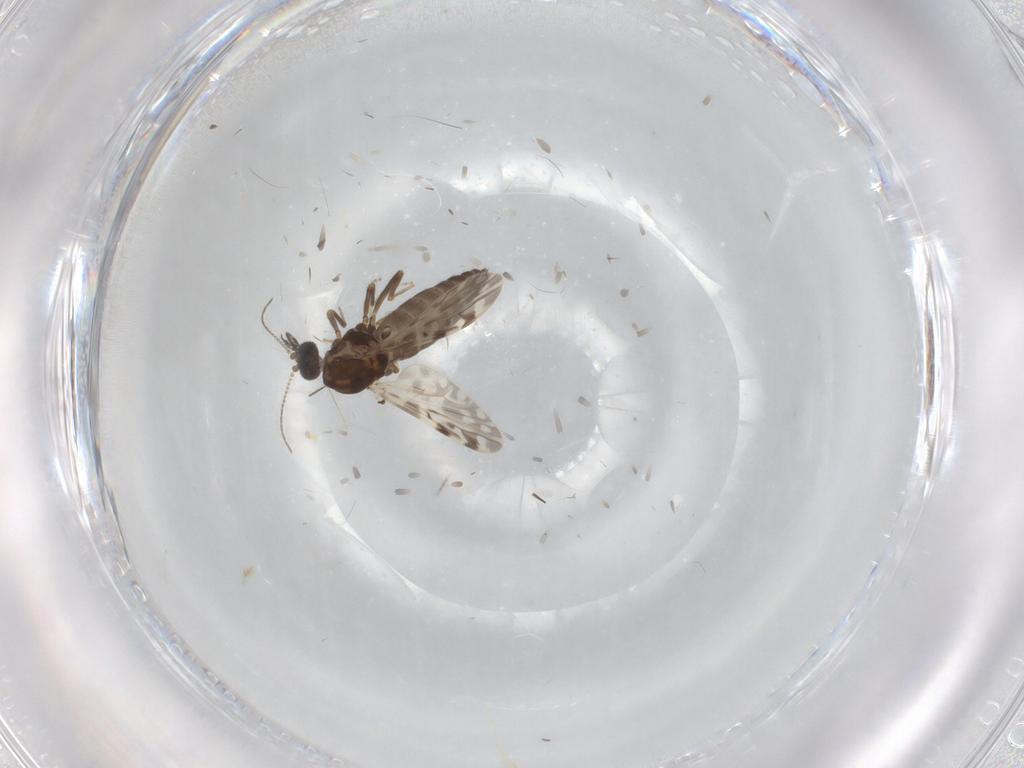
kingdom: Animalia
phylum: Arthropoda
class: Insecta
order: Diptera
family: Ceratopogonidae
